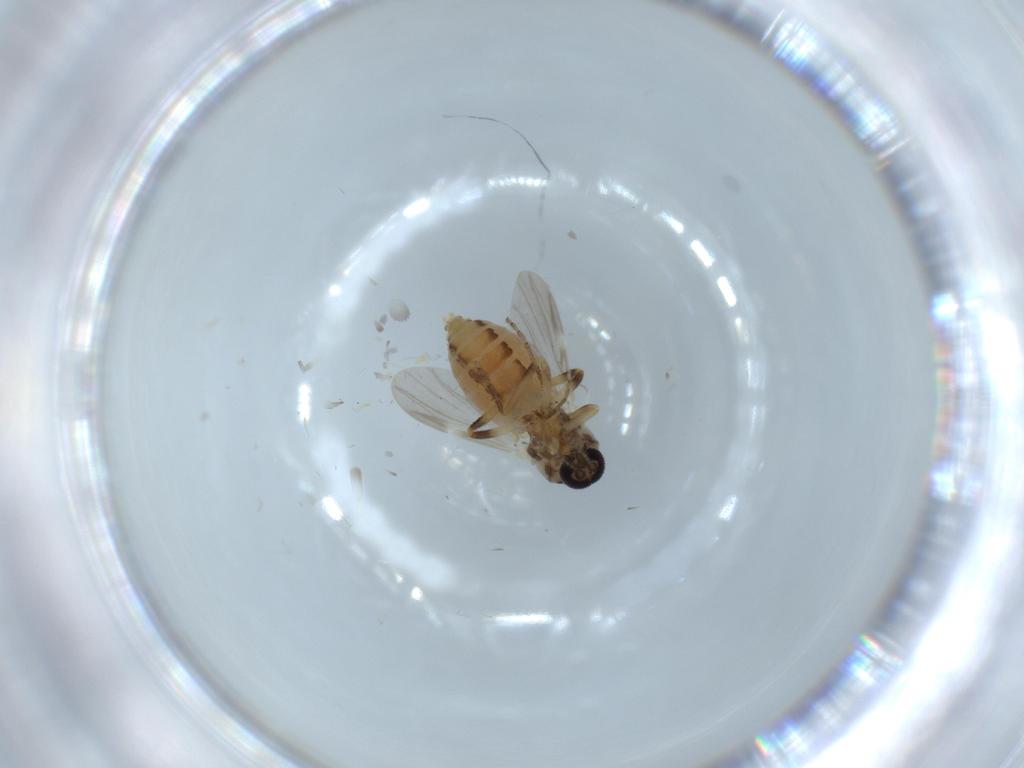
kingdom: Animalia
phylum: Arthropoda
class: Insecta
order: Diptera
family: Ceratopogonidae
